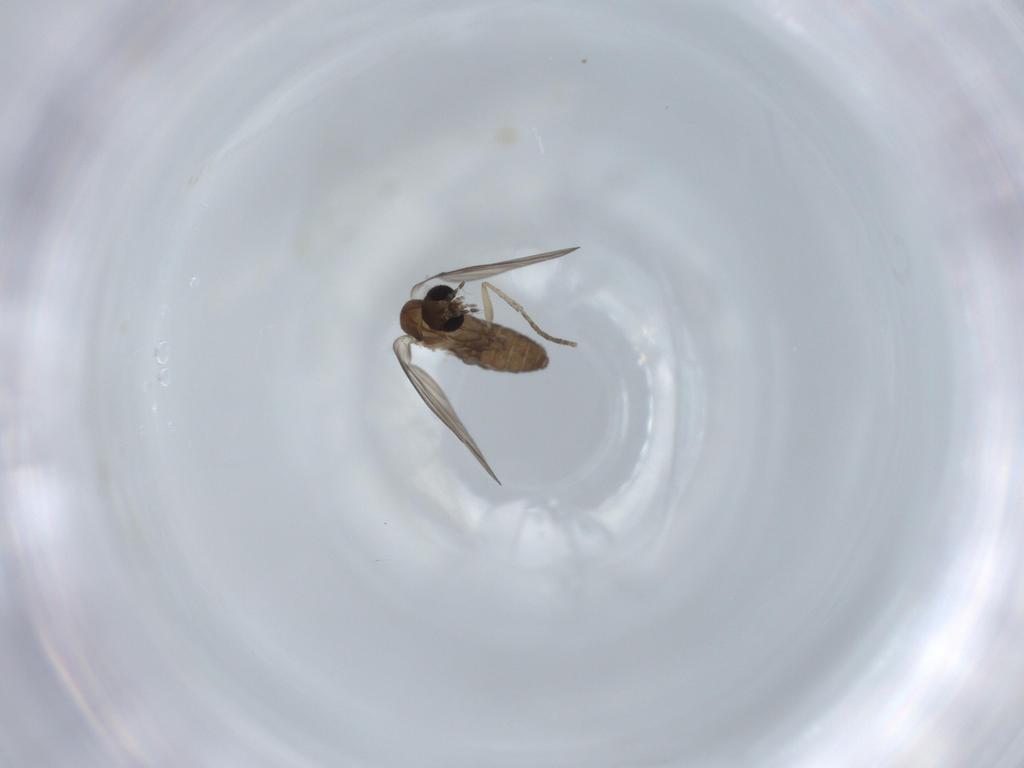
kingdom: Animalia
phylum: Arthropoda
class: Insecta
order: Diptera
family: Psychodidae
